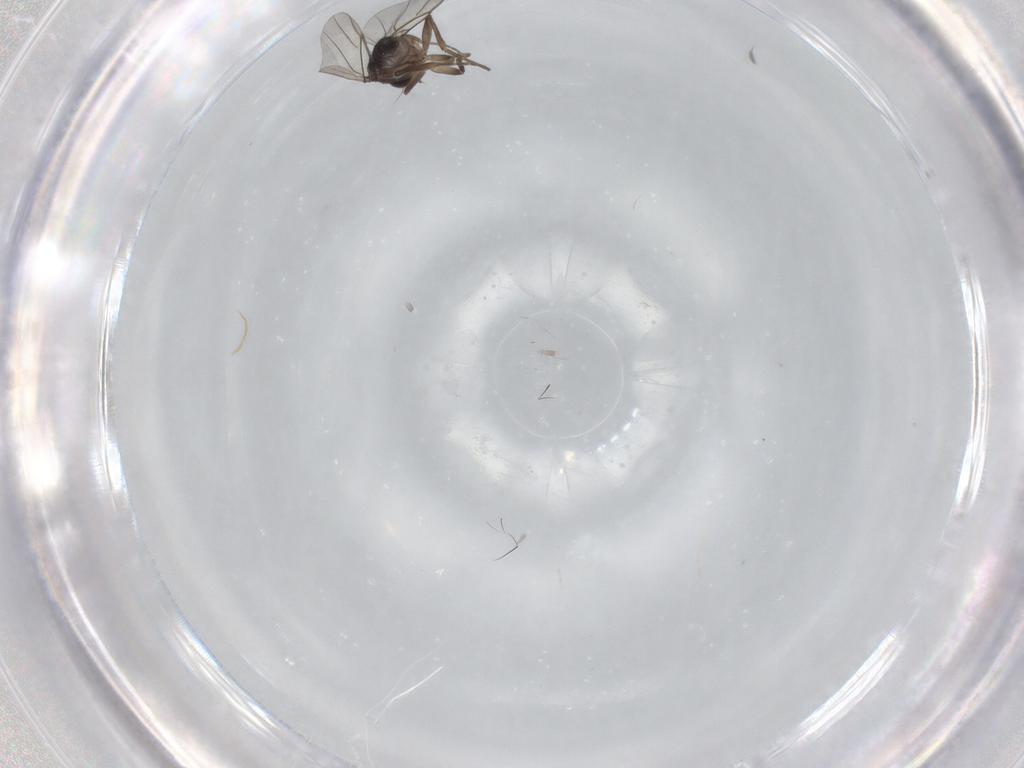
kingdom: Animalia
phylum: Arthropoda
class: Insecta
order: Diptera
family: Phoridae
